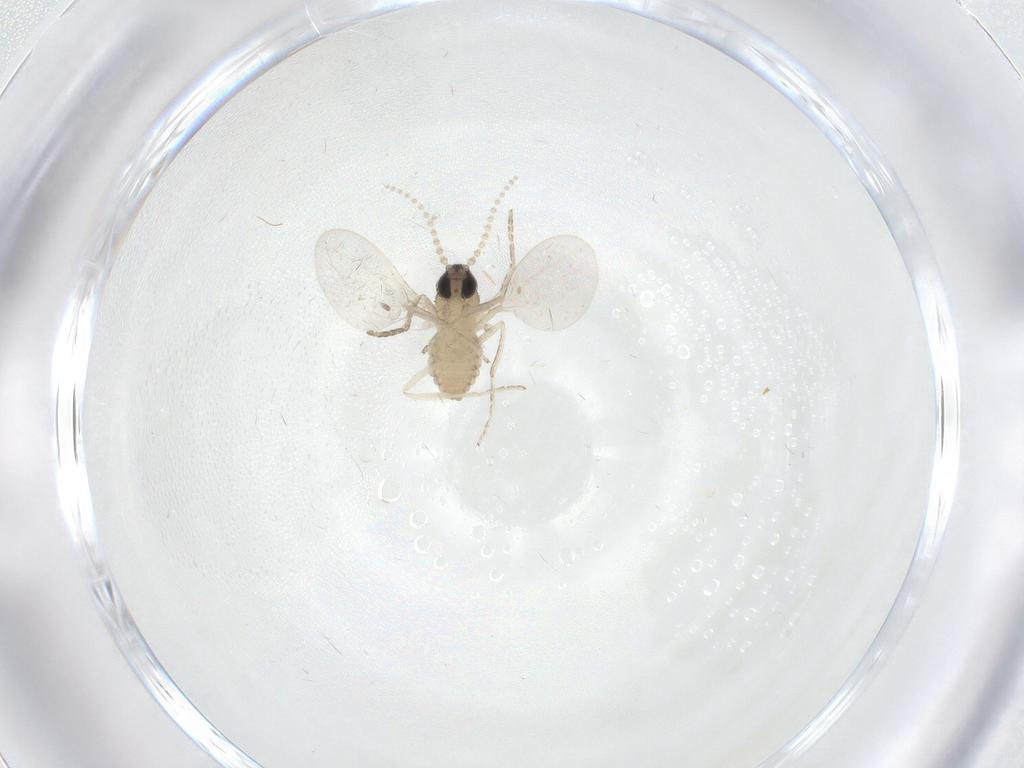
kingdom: Animalia
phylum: Arthropoda
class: Insecta
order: Diptera
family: Cecidomyiidae
